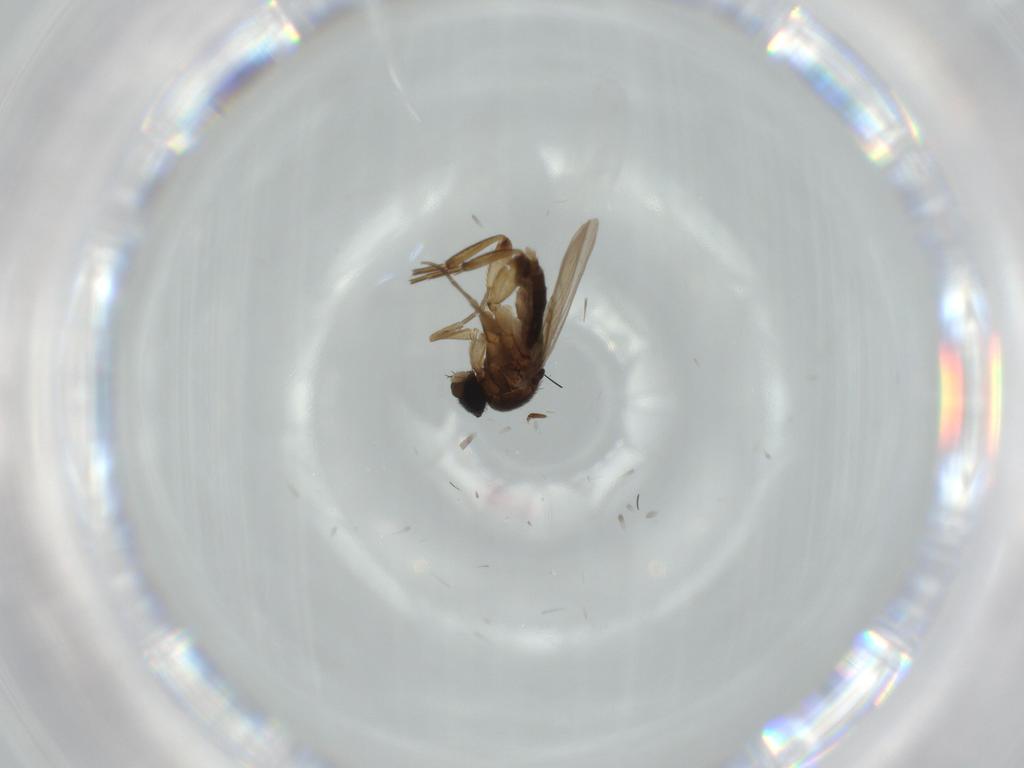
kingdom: Animalia
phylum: Arthropoda
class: Insecta
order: Diptera
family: Phoridae
